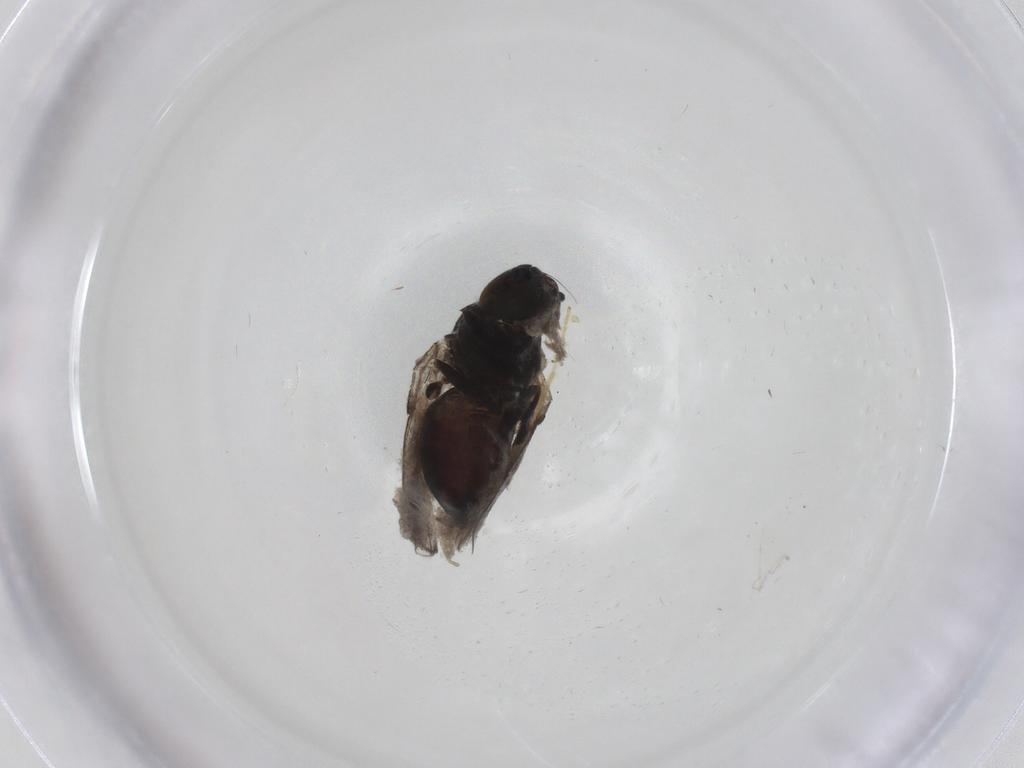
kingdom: Animalia
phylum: Arthropoda
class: Insecta
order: Diptera
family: Milichiidae
